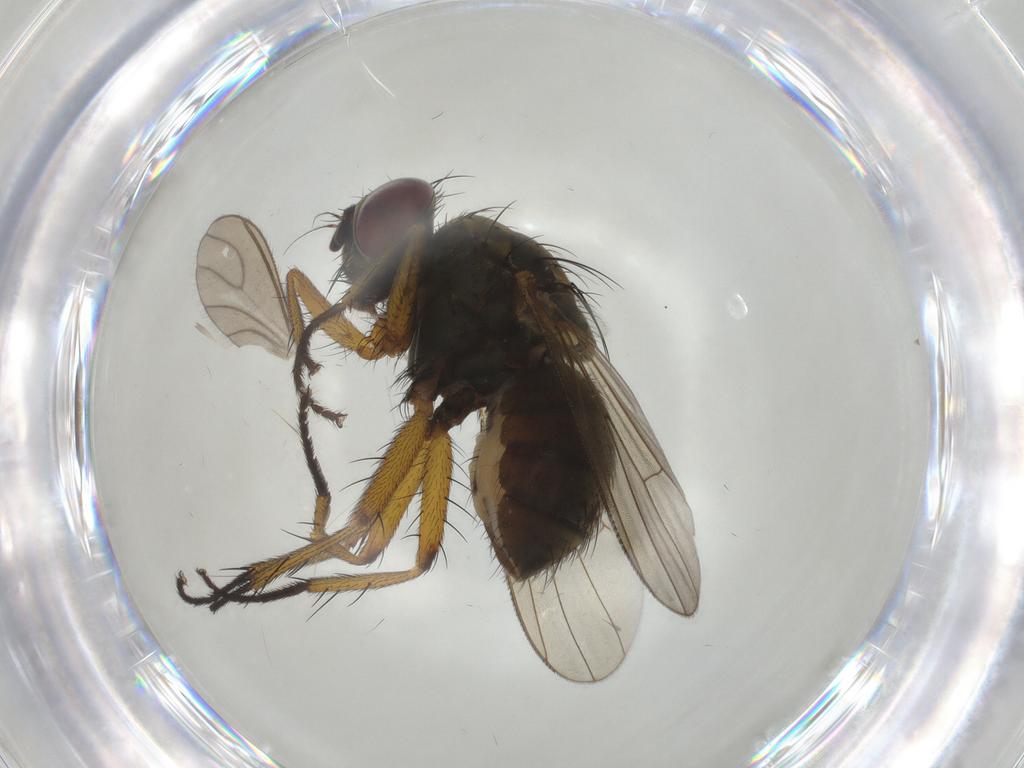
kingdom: Animalia
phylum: Arthropoda
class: Insecta
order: Diptera
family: Muscidae
